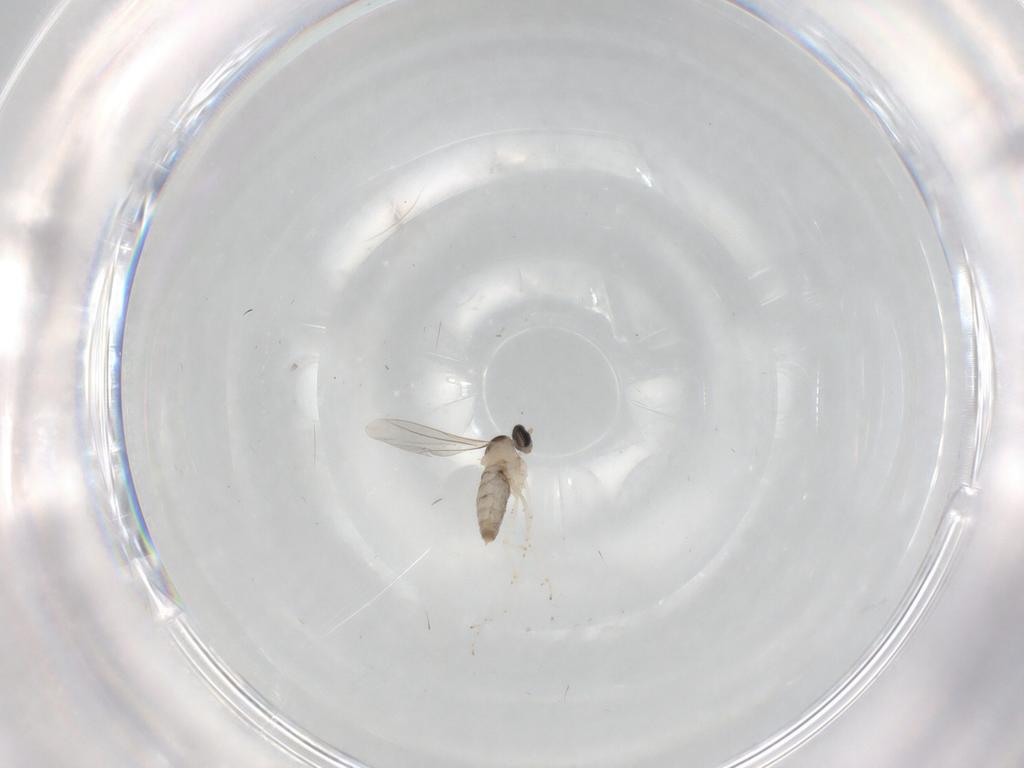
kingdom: Animalia
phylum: Arthropoda
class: Insecta
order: Diptera
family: Cecidomyiidae
